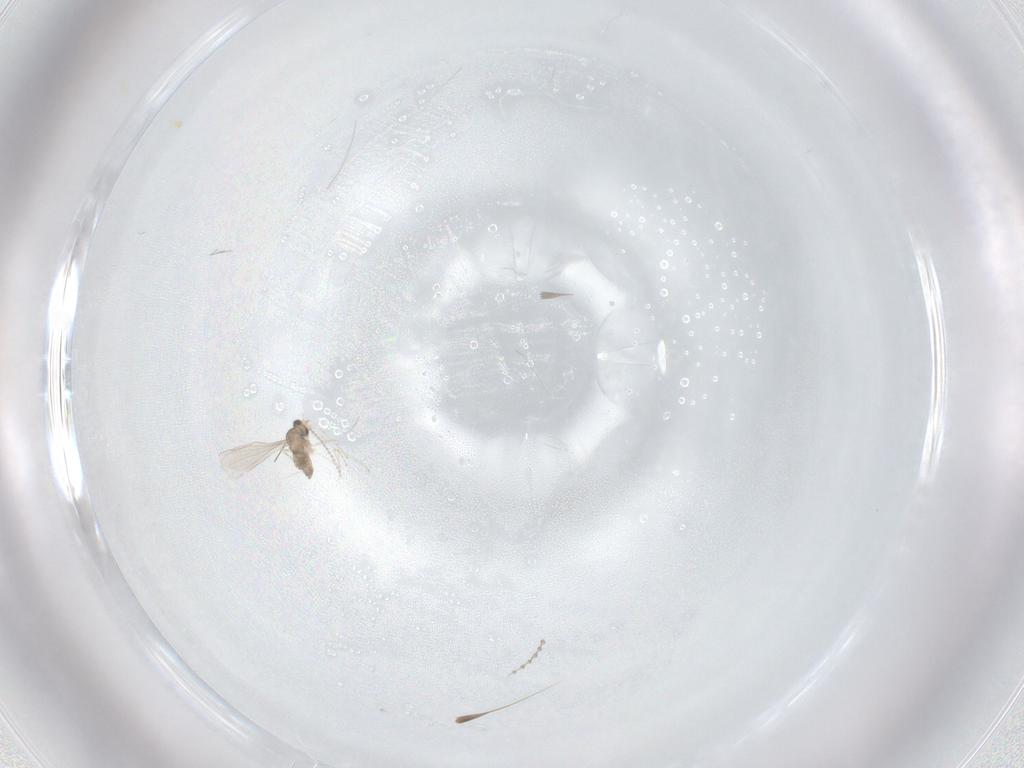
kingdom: Animalia
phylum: Arthropoda
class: Insecta
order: Diptera
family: Cecidomyiidae
